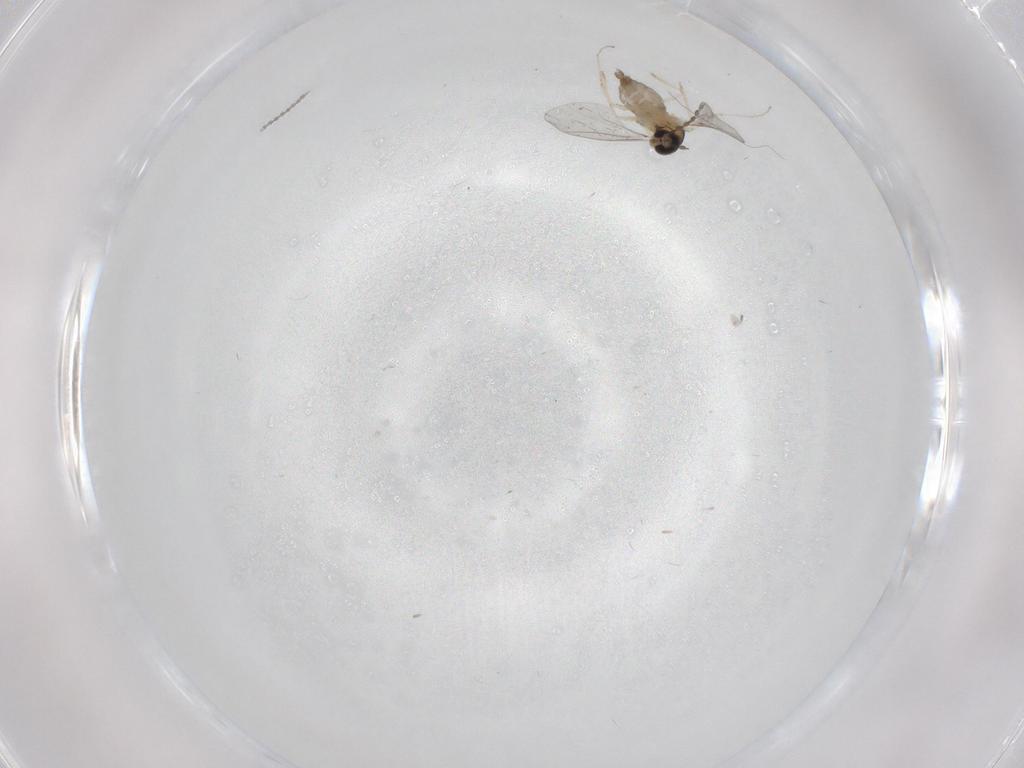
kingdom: Animalia
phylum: Arthropoda
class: Insecta
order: Diptera
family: Cecidomyiidae
